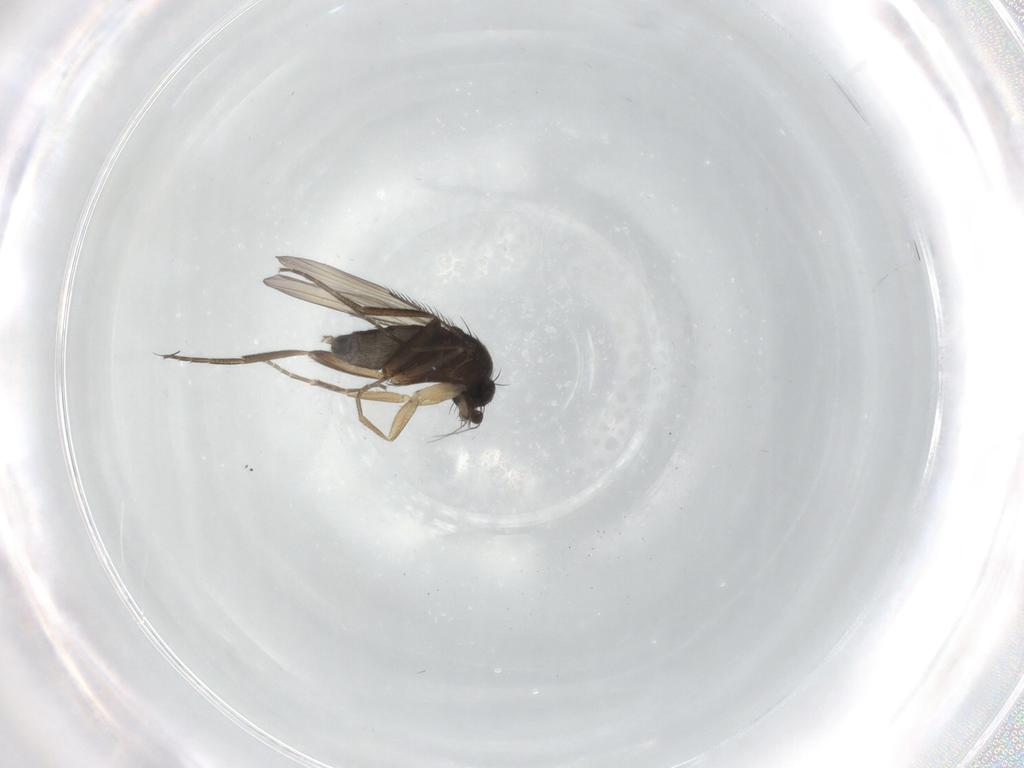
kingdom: Animalia
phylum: Arthropoda
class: Insecta
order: Diptera
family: Phoridae
